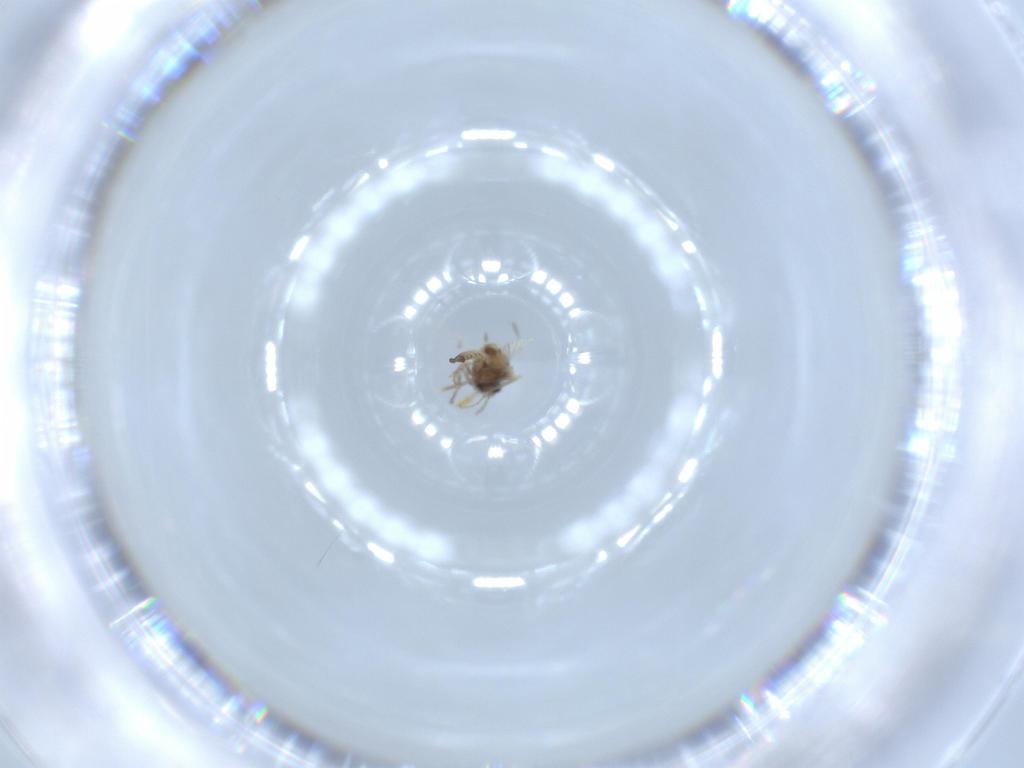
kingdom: Animalia
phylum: Arthropoda
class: Insecta
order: Diptera
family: Ceratopogonidae
